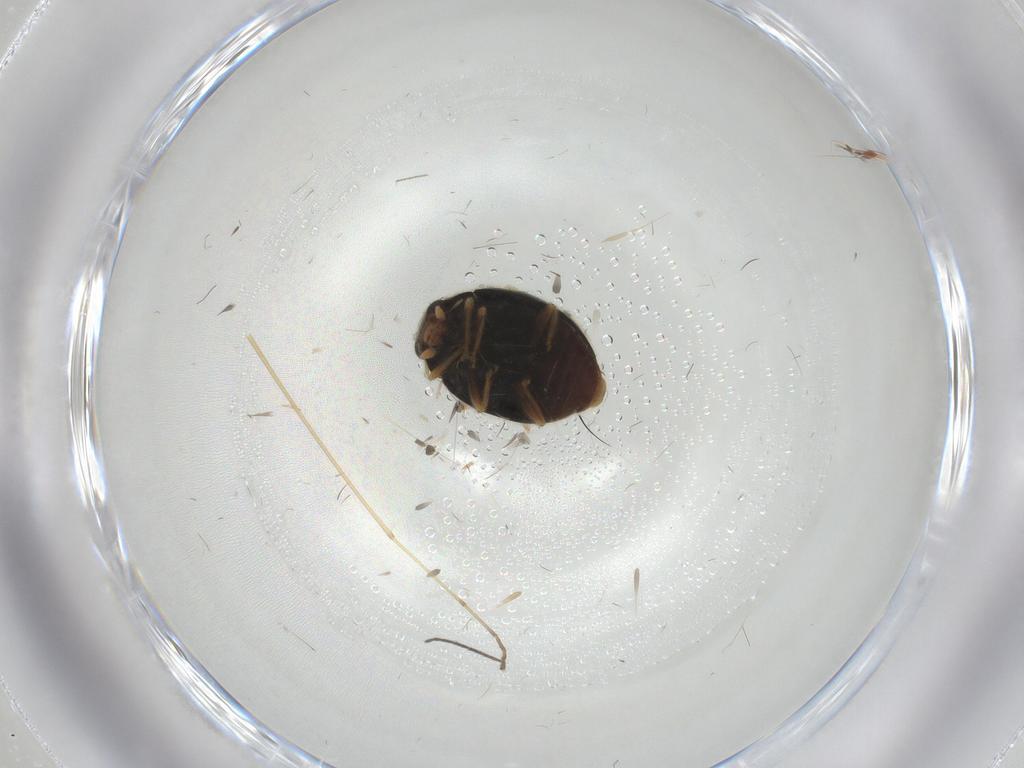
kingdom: Animalia
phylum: Arthropoda
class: Insecta
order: Coleoptera
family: Coccinellidae
